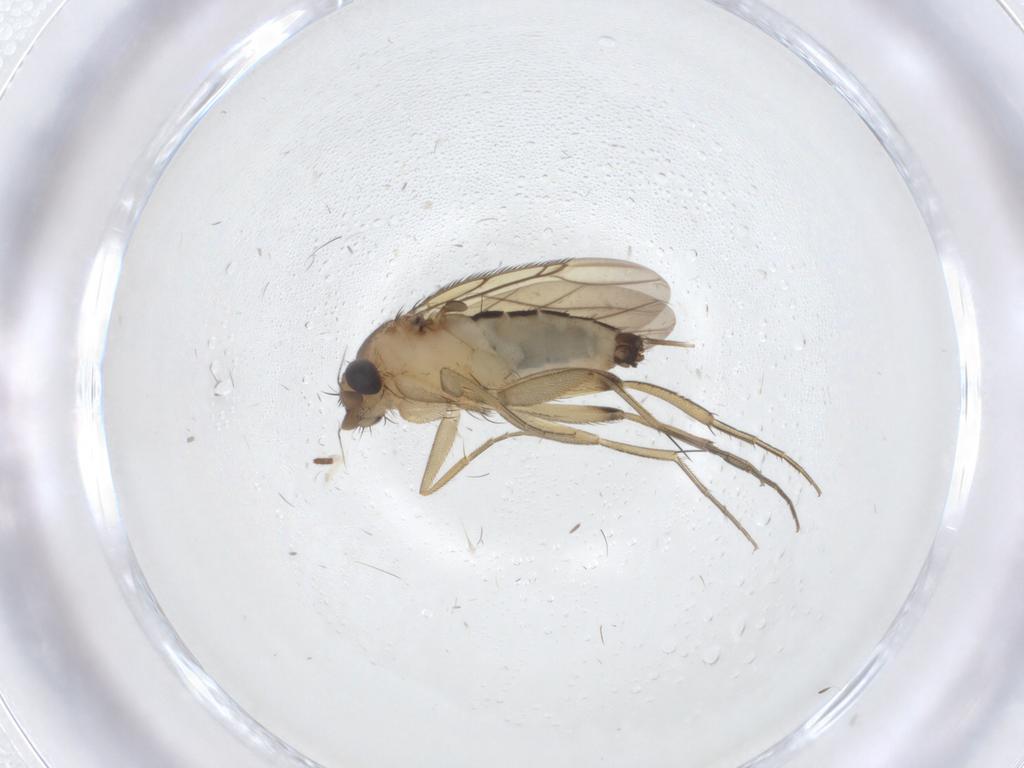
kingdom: Animalia
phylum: Arthropoda
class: Insecta
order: Diptera
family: Phoridae
